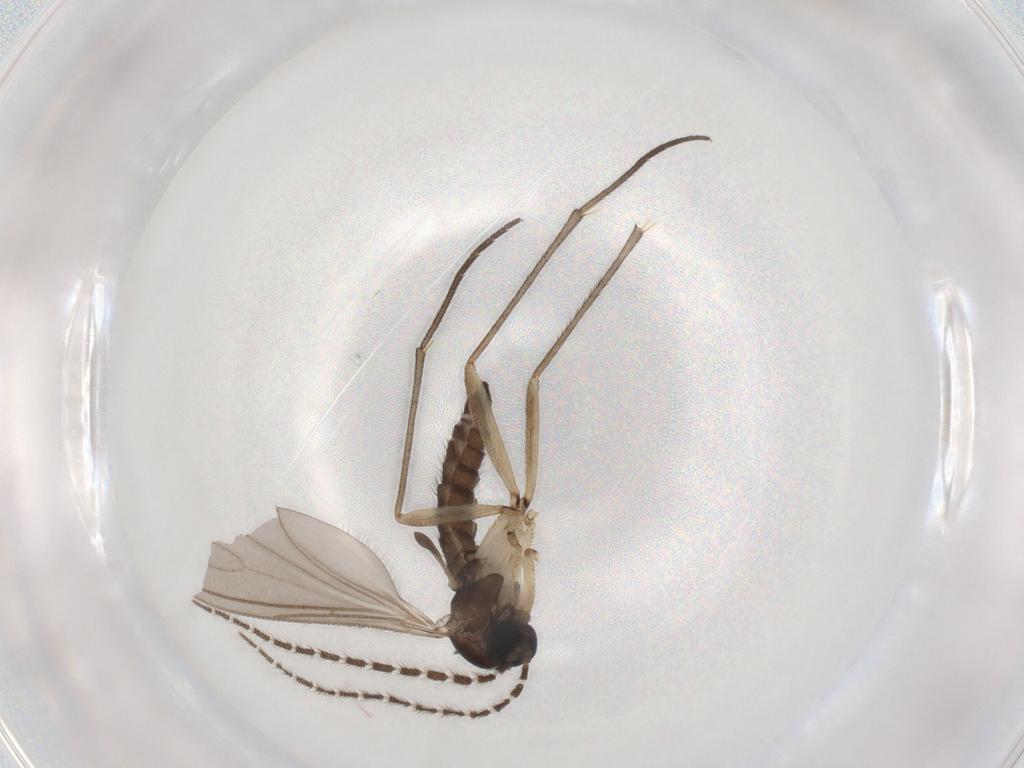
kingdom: Animalia
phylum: Arthropoda
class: Insecta
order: Diptera
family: Sciaridae
